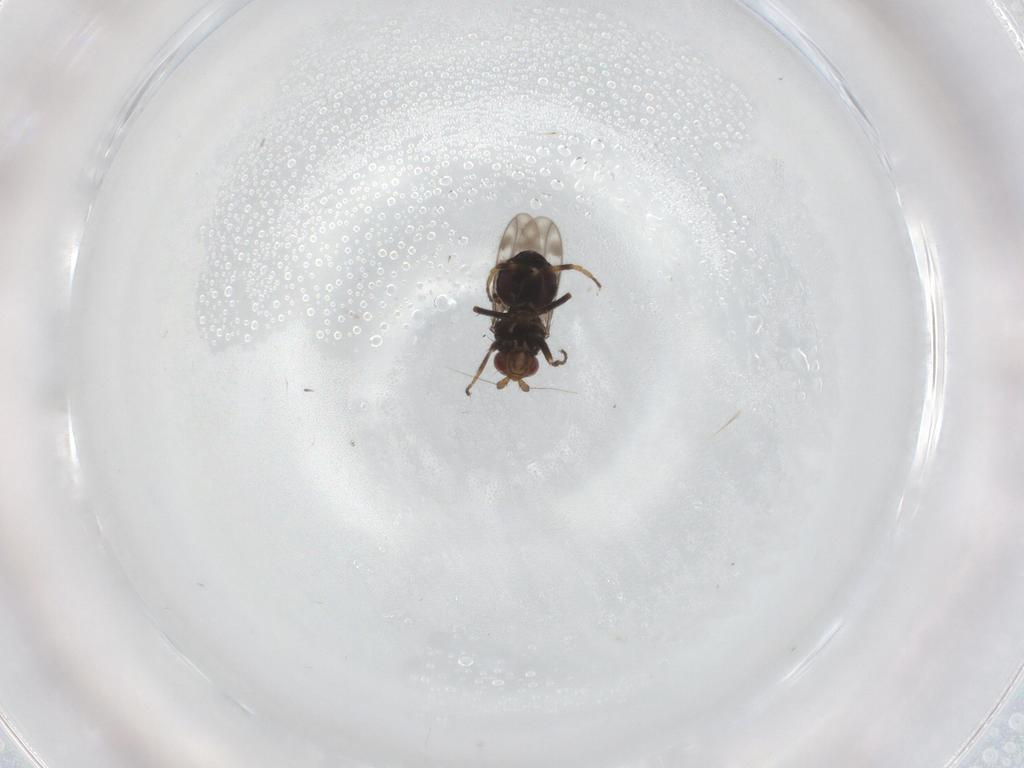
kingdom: Animalia
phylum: Arthropoda
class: Insecta
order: Diptera
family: Sphaeroceridae
